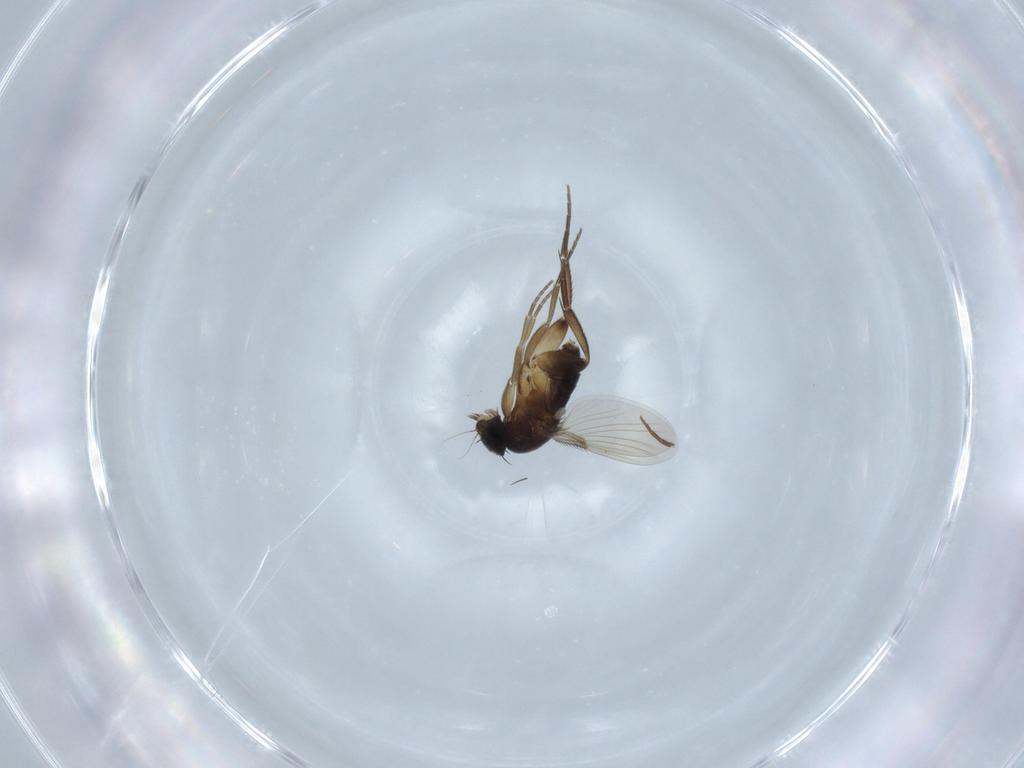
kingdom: Animalia
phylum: Arthropoda
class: Insecta
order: Diptera
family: Phoridae
